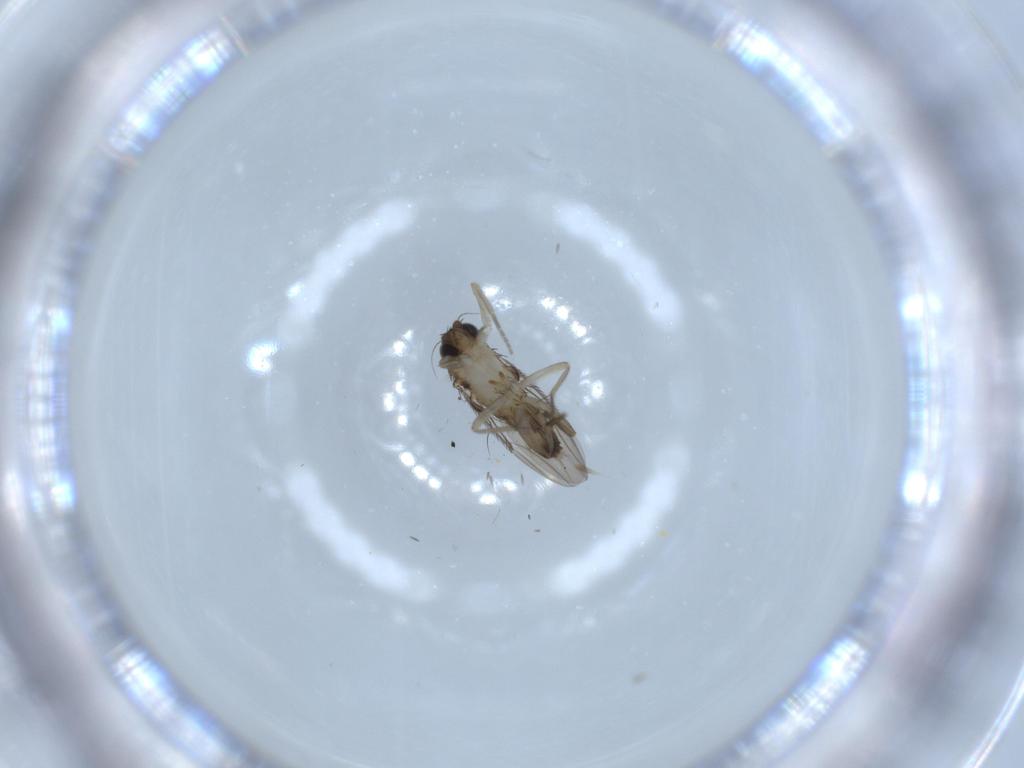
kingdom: Animalia
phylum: Arthropoda
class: Insecta
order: Diptera
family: Phoridae
